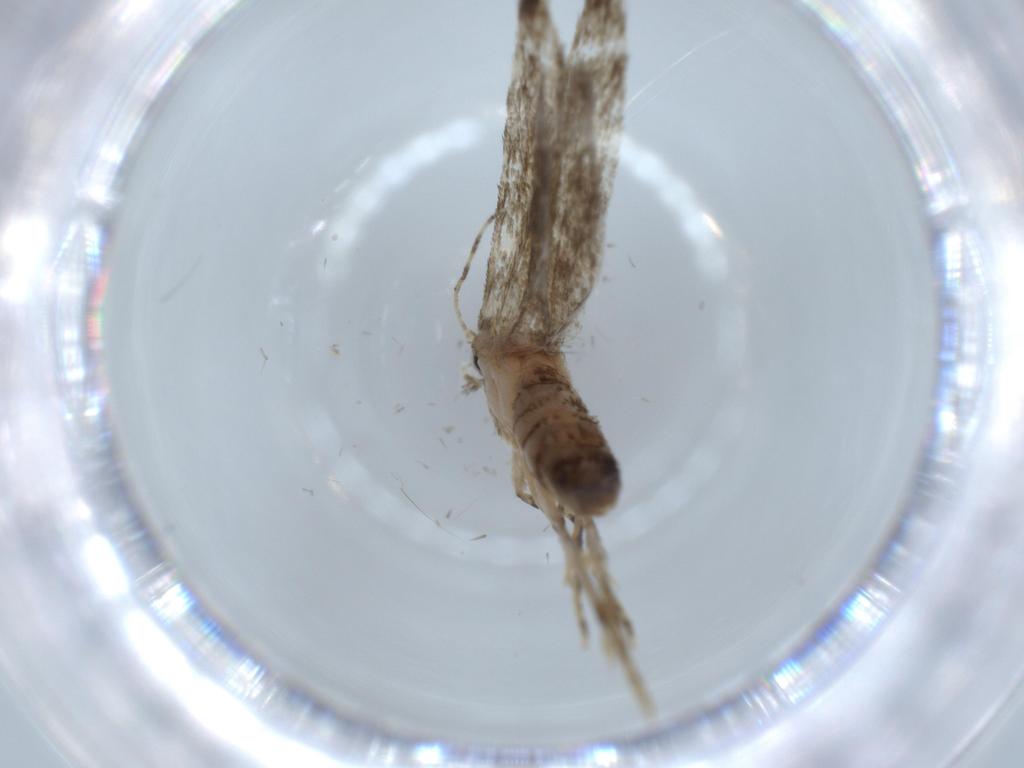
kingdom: Animalia
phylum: Arthropoda
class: Insecta
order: Lepidoptera
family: Tineidae
